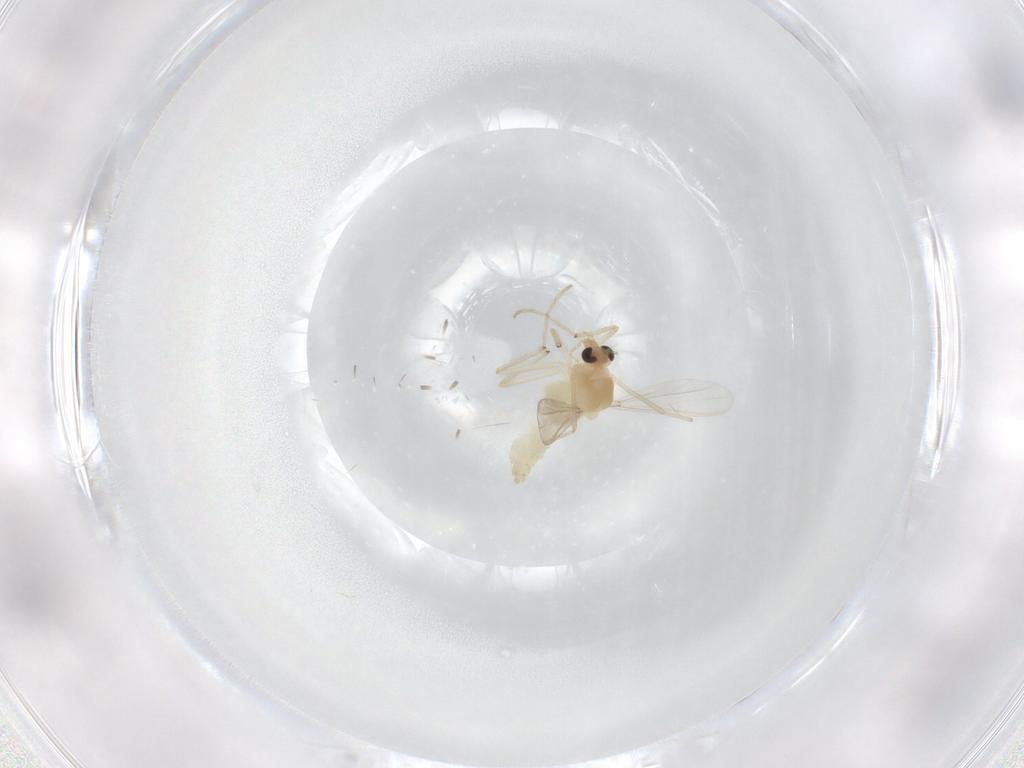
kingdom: Animalia
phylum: Arthropoda
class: Insecta
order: Diptera
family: Chironomidae
